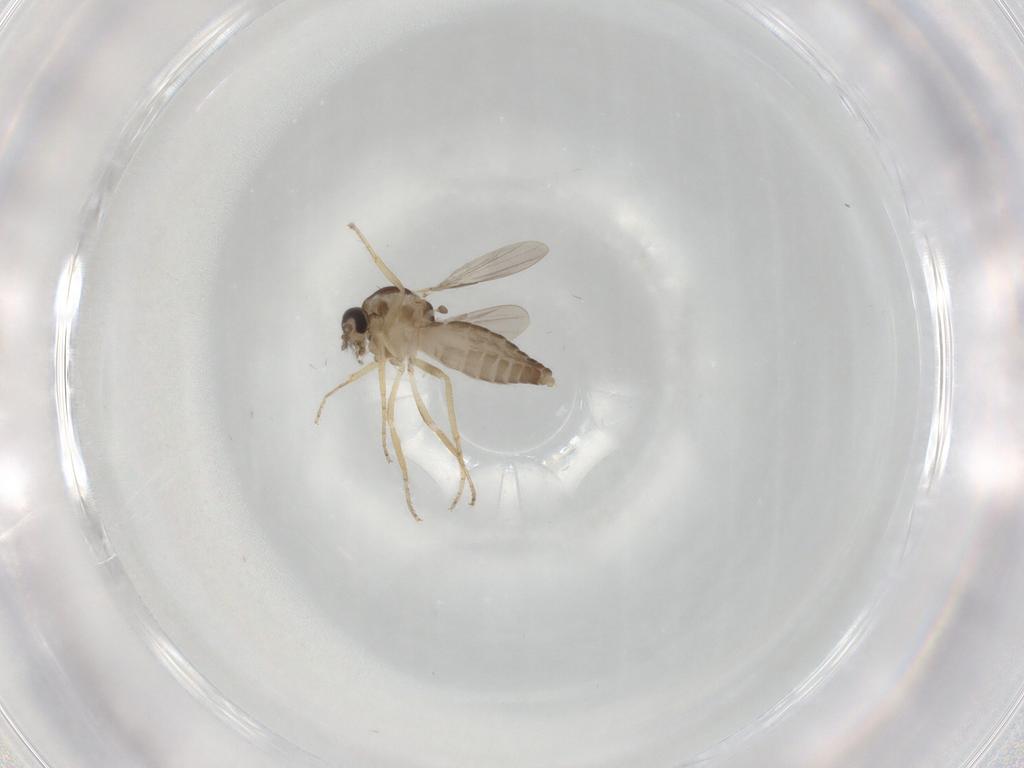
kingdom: Animalia
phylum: Arthropoda
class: Insecta
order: Diptera
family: Ceratopogonidae
